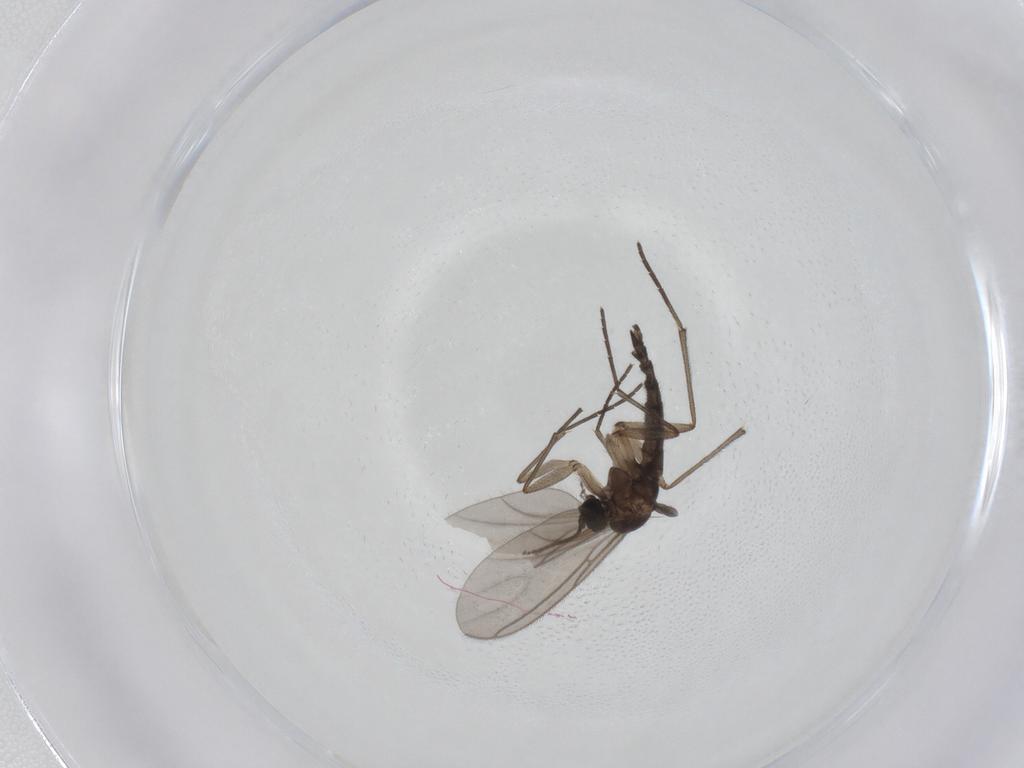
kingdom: Animalia
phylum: Arthropoda
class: Insecta
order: Diptera
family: Sciaridae
